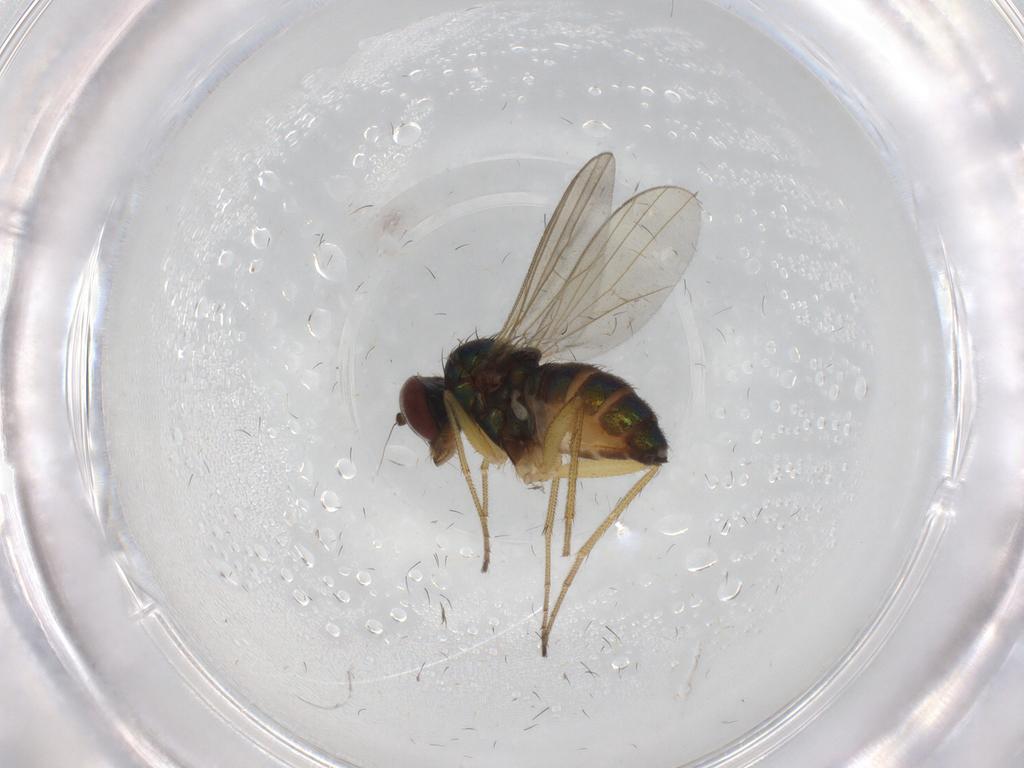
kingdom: Animalia
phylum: Arthropoda
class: Insecta
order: Diptera
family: Dolichopodidae
